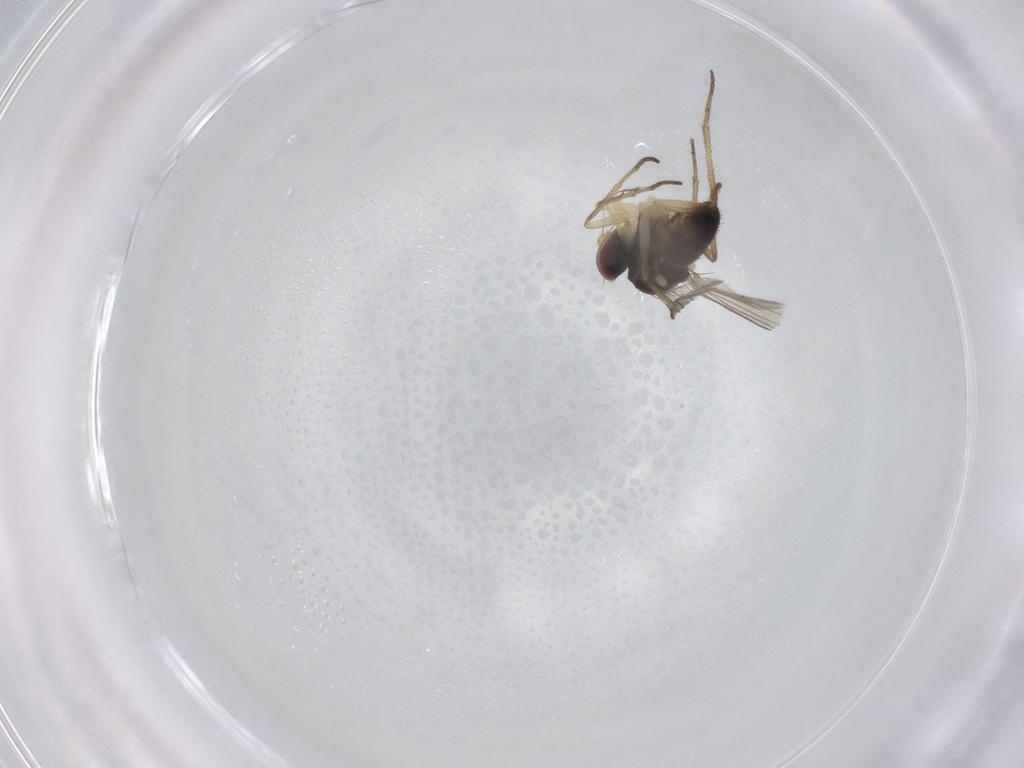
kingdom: Animalia
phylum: Arthropoda
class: Insecta
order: Diptera
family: Dolichopodidae
